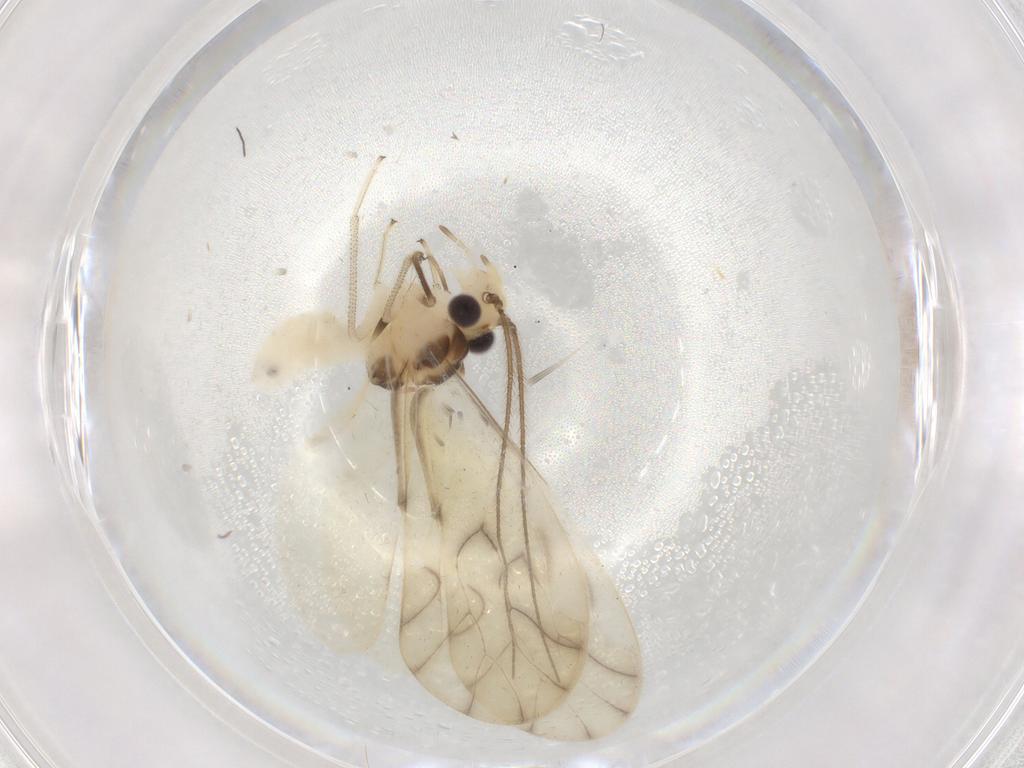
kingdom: Animalia
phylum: Arthropoda
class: Insecta
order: Psocodea
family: Caeciliusidae
